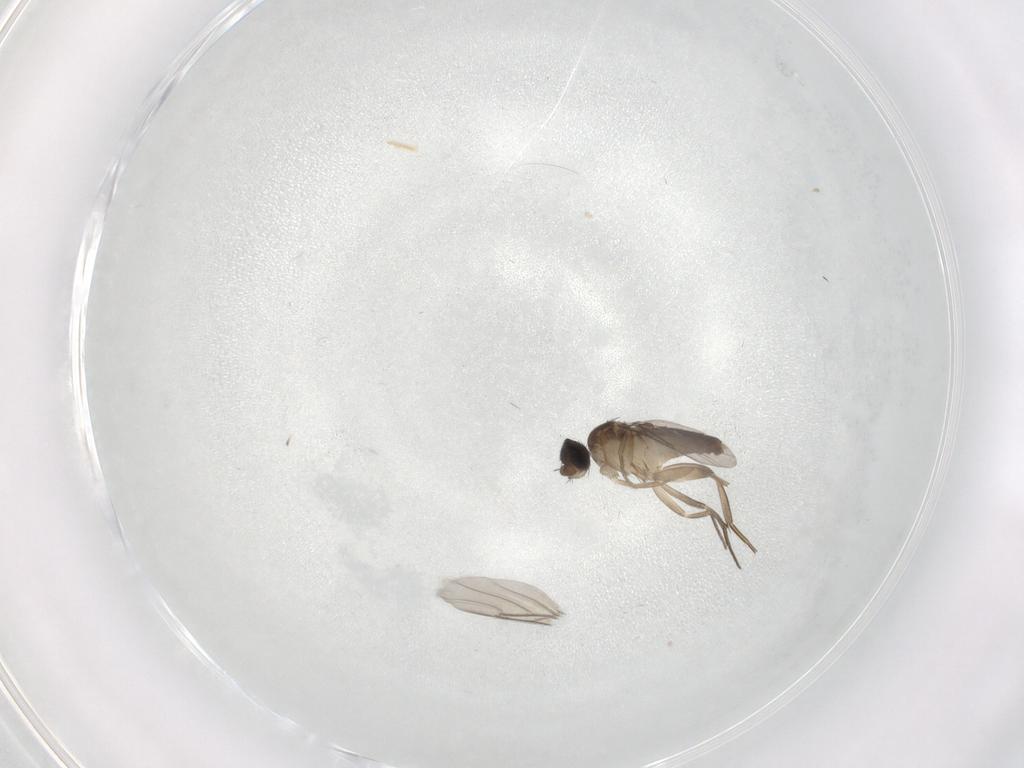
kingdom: Animalia
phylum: Arthropoda
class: Insecta
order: Diptera
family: Phoridae
